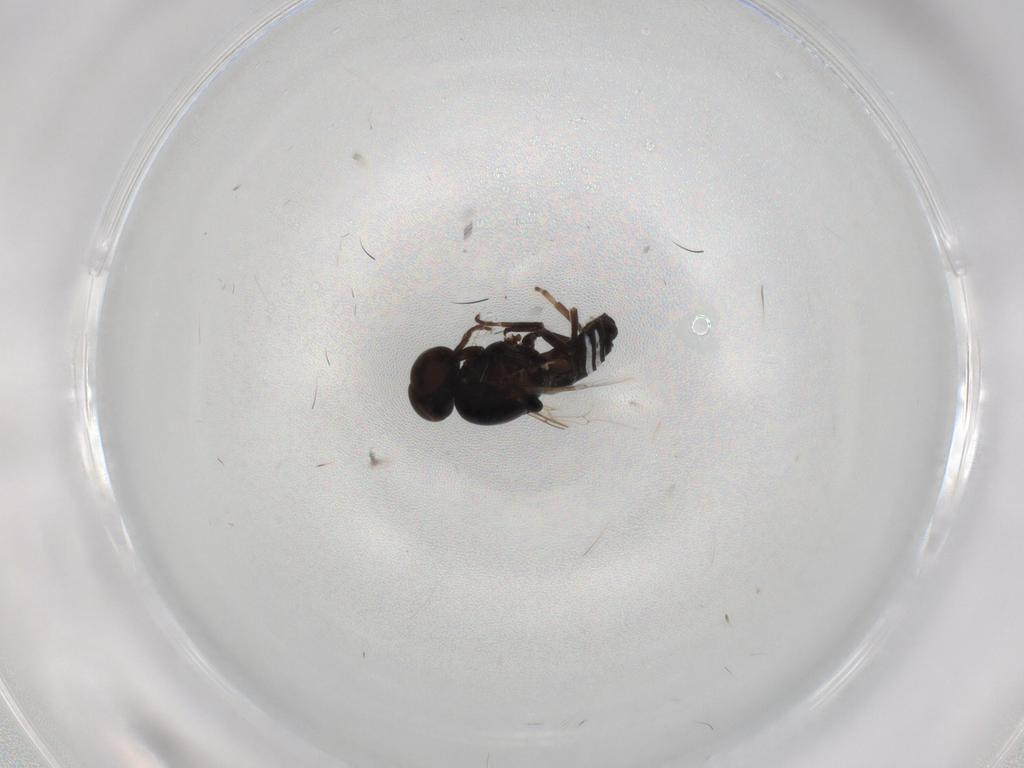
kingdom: Animalia
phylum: Arthropoda
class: Insecta
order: Diptera
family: Scenopinidae
